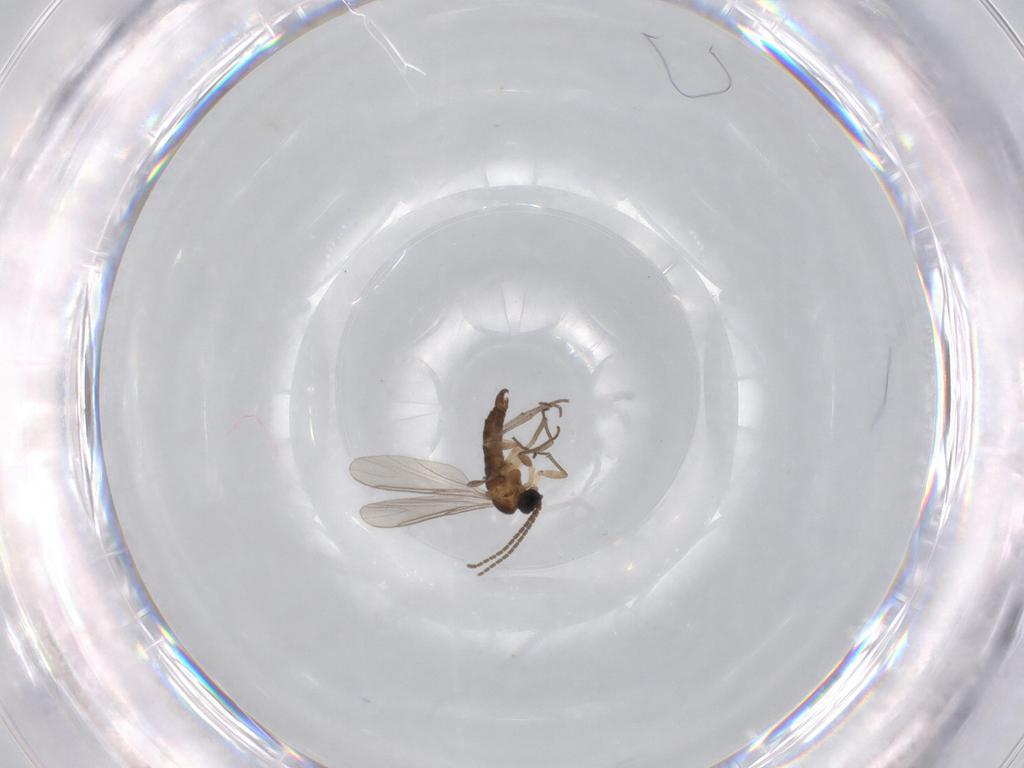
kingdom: Animalia
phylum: Arthropoda
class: Insecta
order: Diptera
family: Sciaridae
